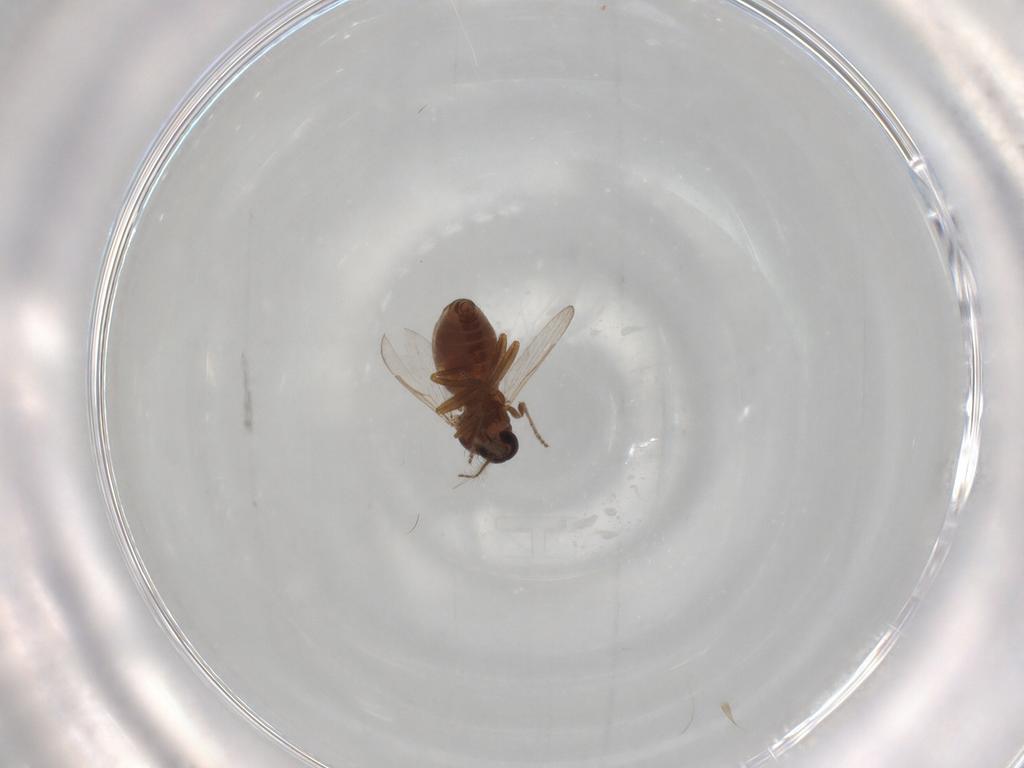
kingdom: Animalia
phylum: Arthropoda
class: Insecta
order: Diptera
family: Ceratopogonidae
